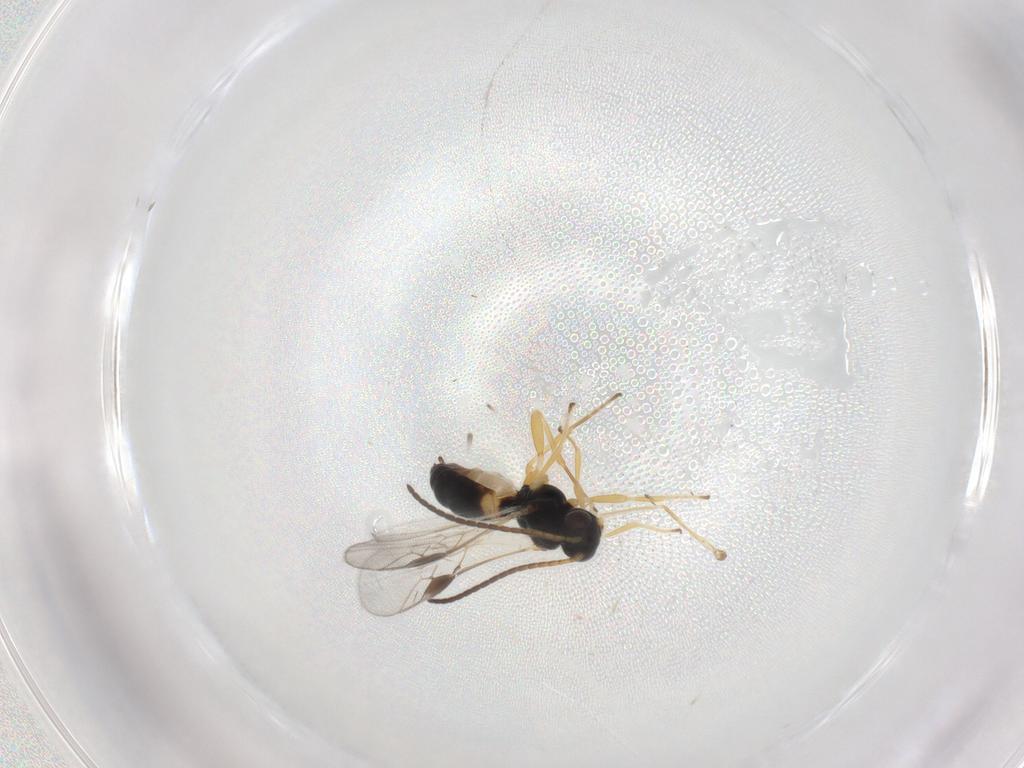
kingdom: Animalia
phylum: Arthropoda
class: Insecta
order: Hymenoptera
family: Braconidae
